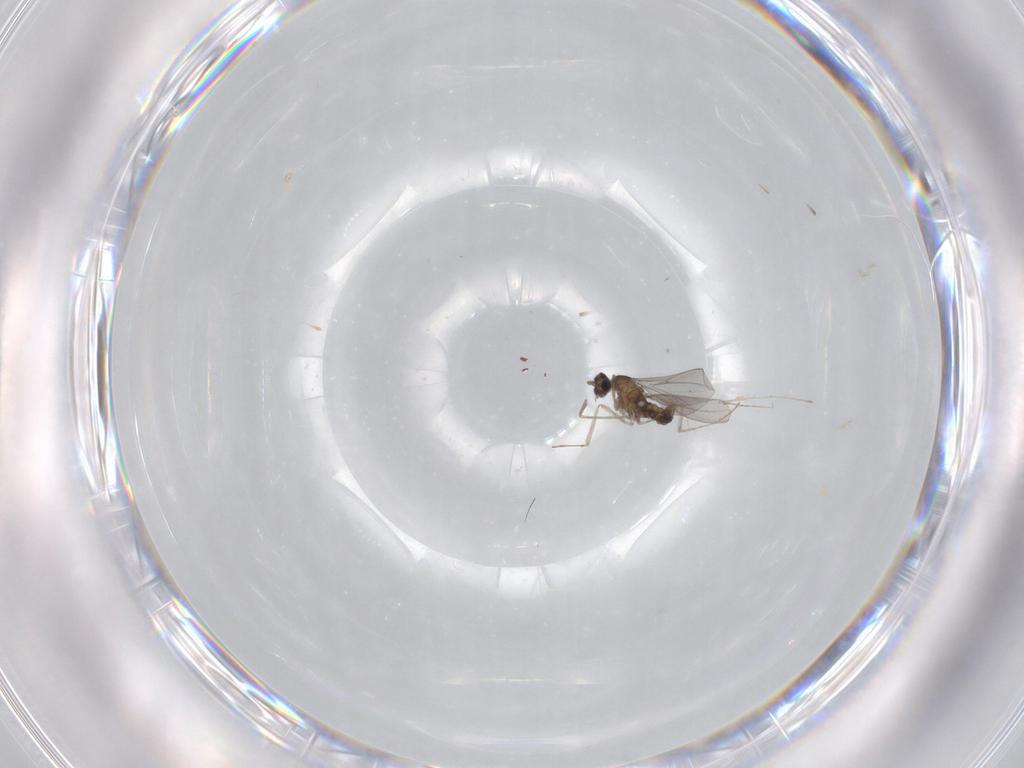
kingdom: Animalia
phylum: Arthropoda
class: Insecta
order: Diptera
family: Cecidomyiidae
